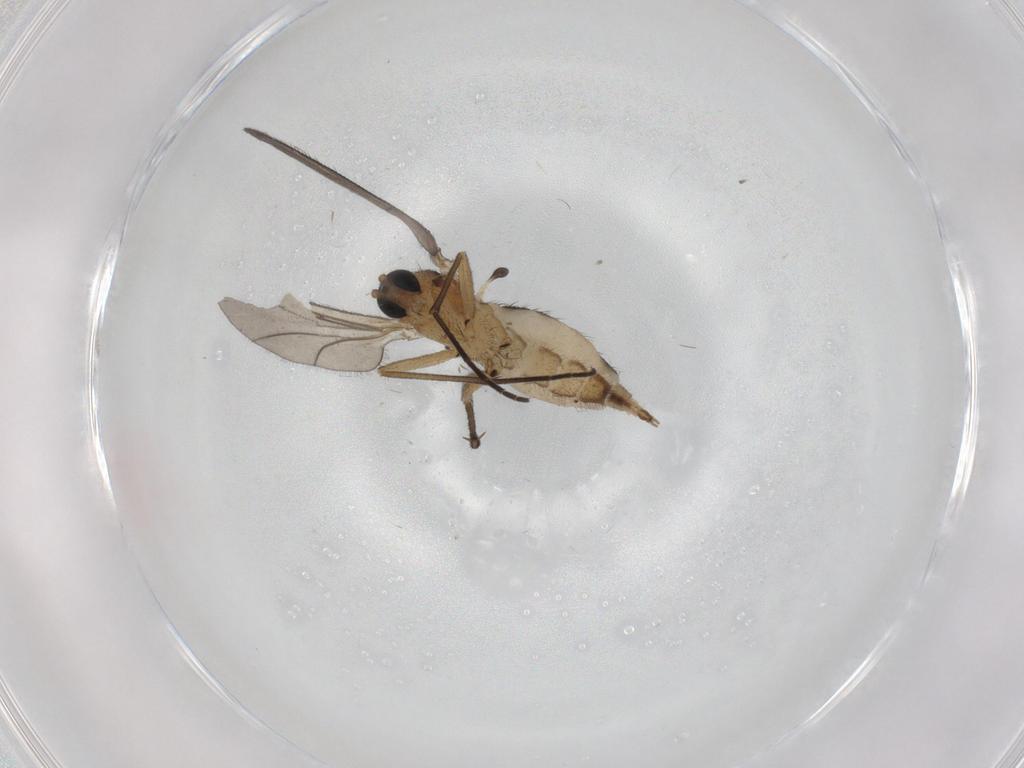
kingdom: Animalia
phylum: Arthropoda
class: Insecta
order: Diptera
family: Sciaridae
